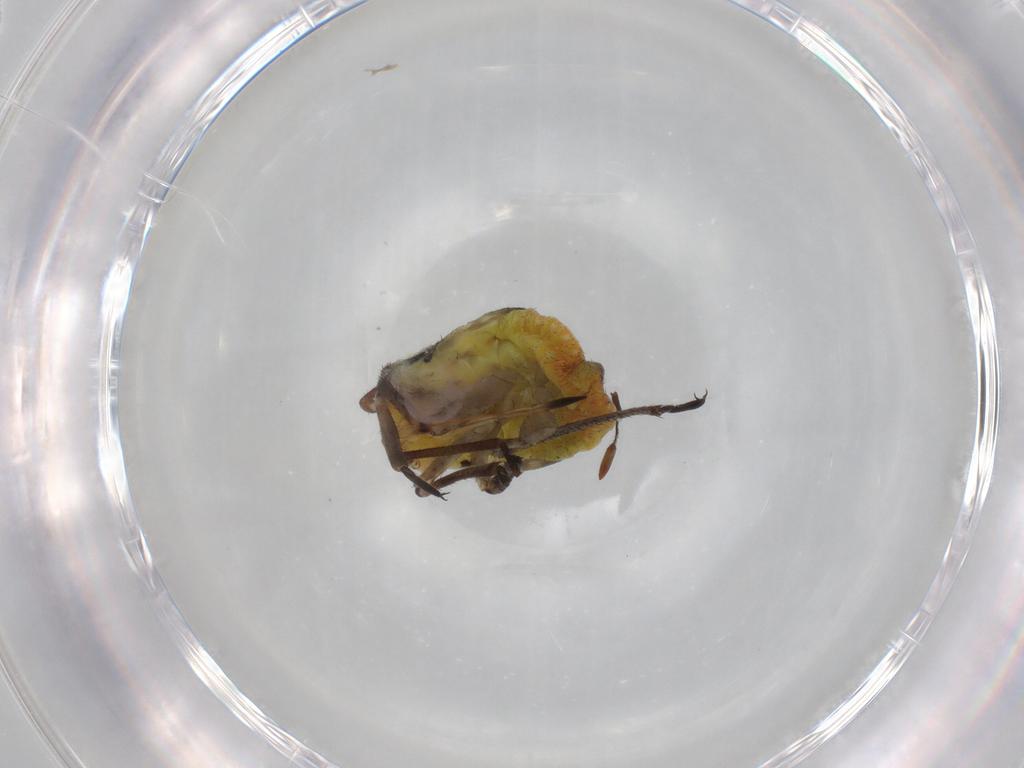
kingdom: Animalia
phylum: Arthropoda
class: Insecta
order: Hemiptera
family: Miridae
